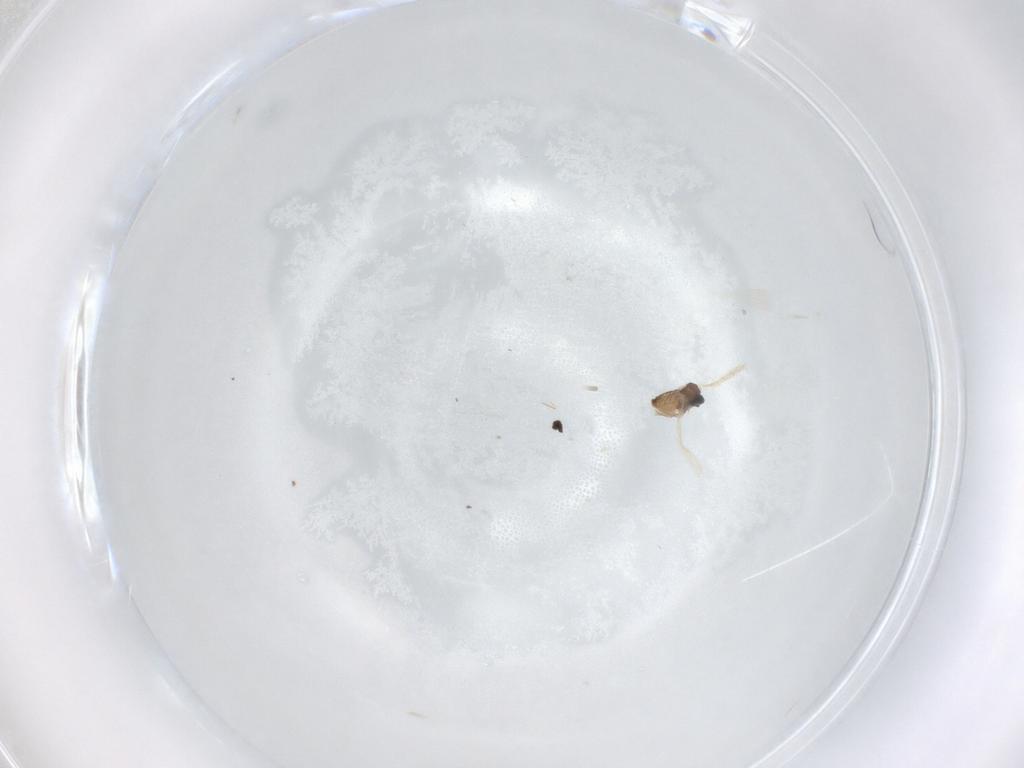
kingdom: Animalia
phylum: Arthropoda
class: Insecta
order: Diptera
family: Cecidomyiidae
